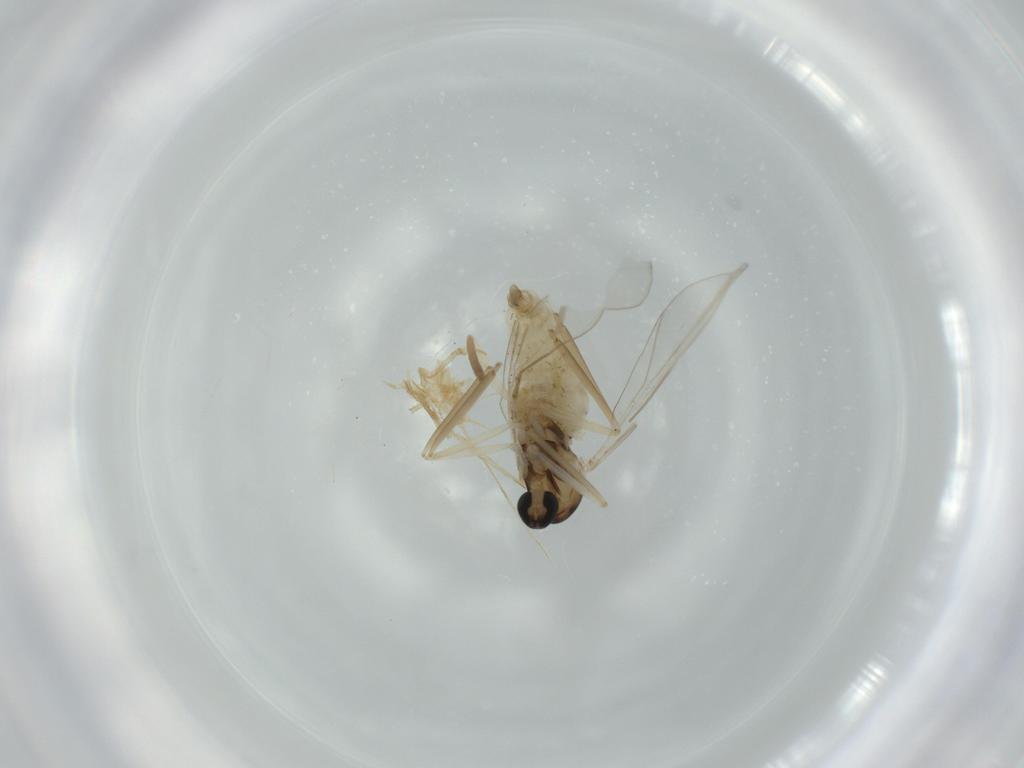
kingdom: Animalia
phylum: Arthropoda
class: Insecta
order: Diptera
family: Cecidomyiidae
